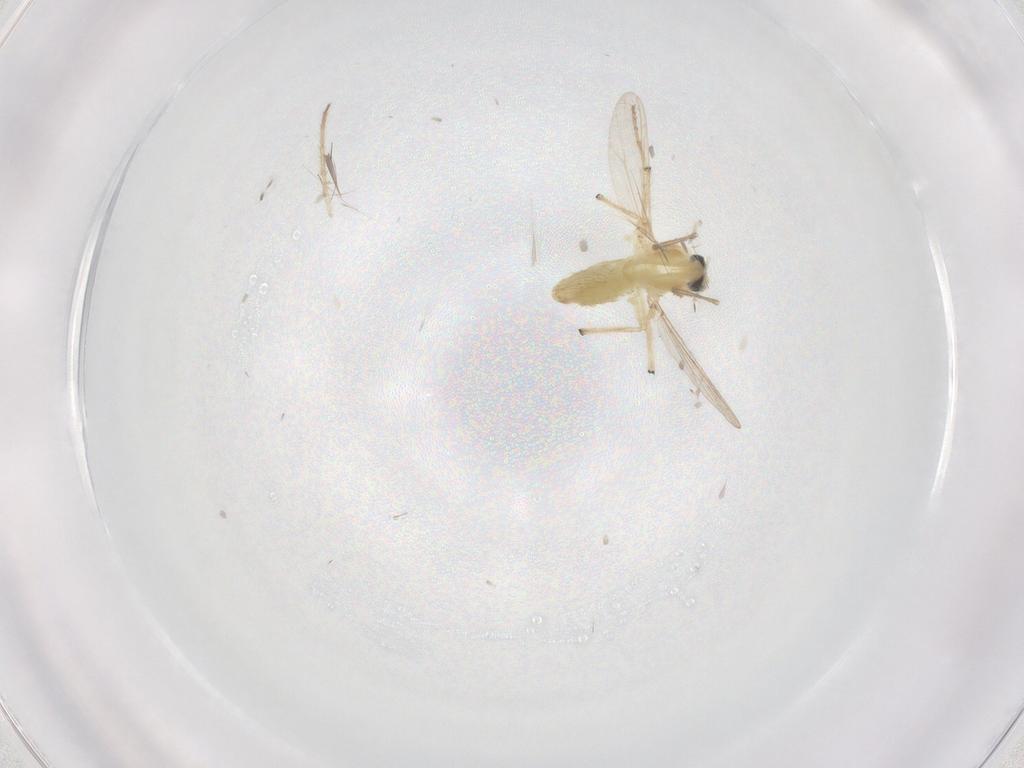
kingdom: Animalia
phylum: Arthropoda
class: Insecta
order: Diptera
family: Chironomidae
